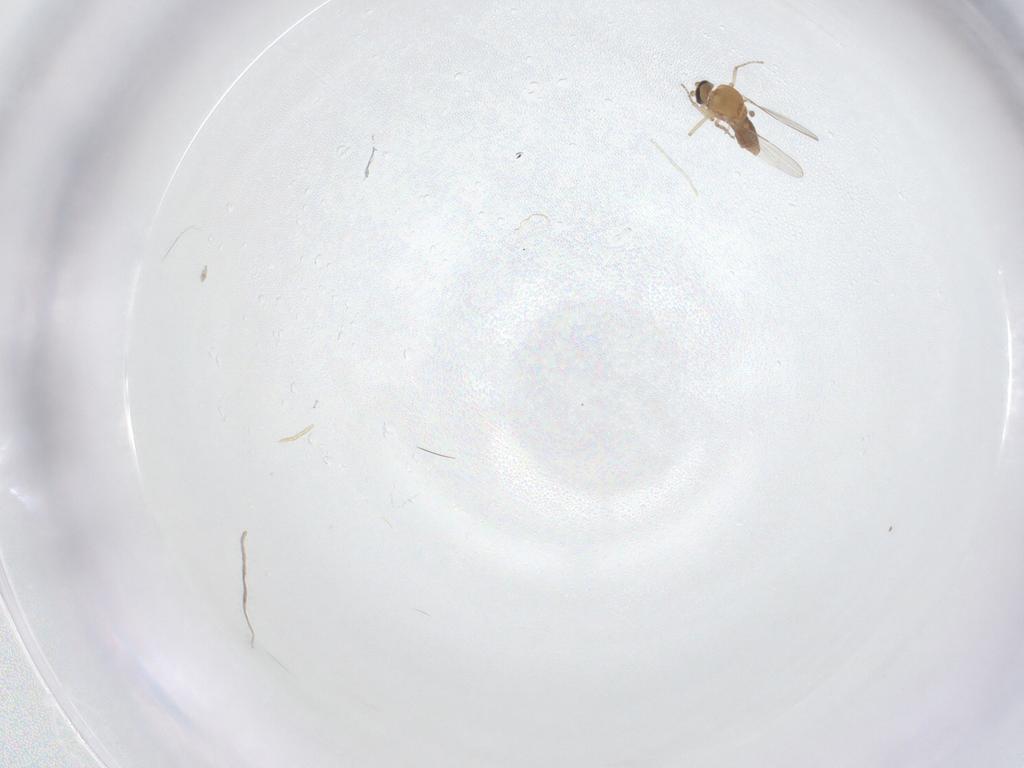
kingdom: Animalia
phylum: Arthropoda
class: Insecta
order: Diptera
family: Ceratopogonidae
